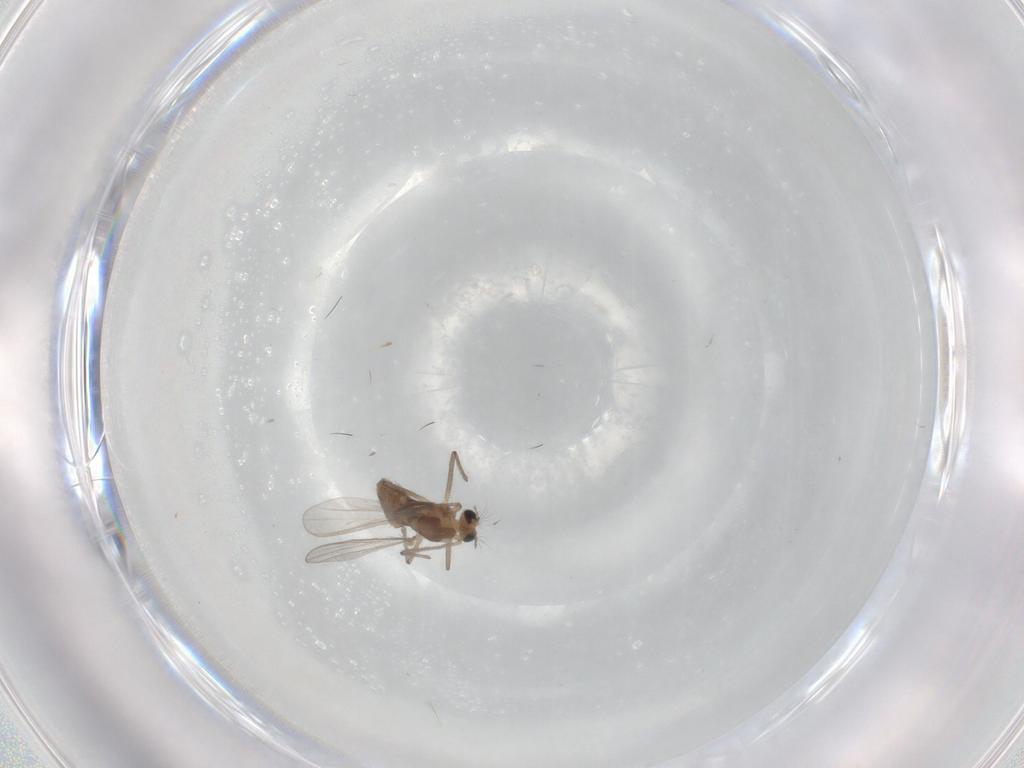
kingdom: Animalia
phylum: Arthropoda
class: Insecta
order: Diptera
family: Chironomidae
